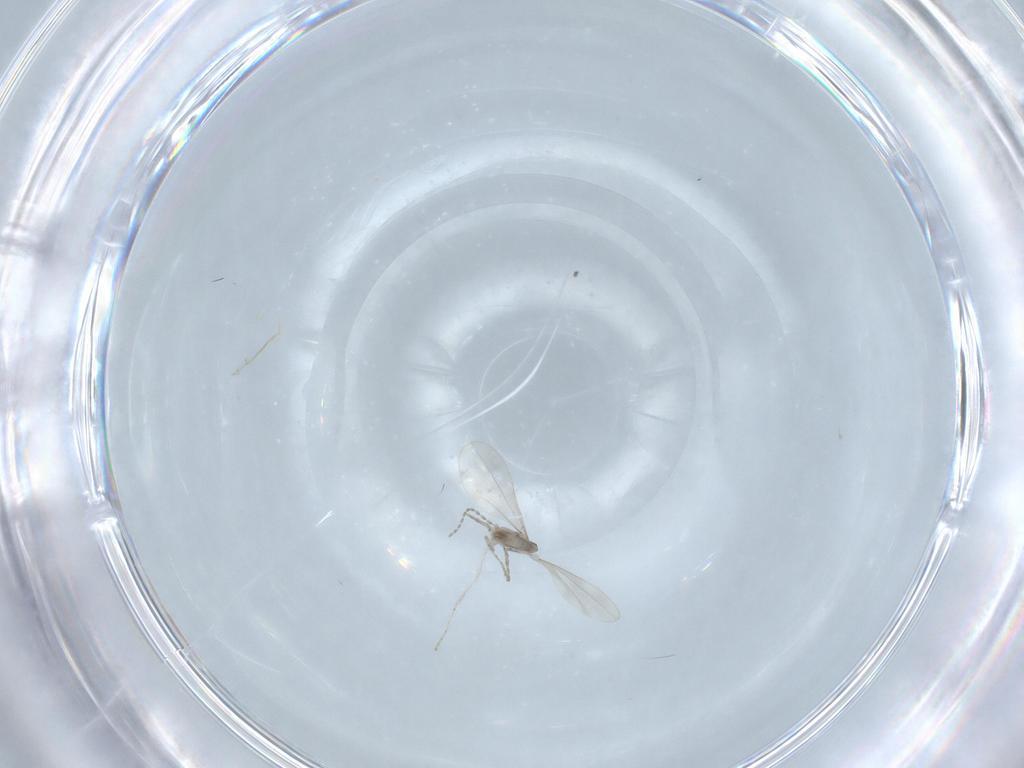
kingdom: Animalia
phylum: Arthropoda
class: Insecta
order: Diptera
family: Cecidomyiidae
